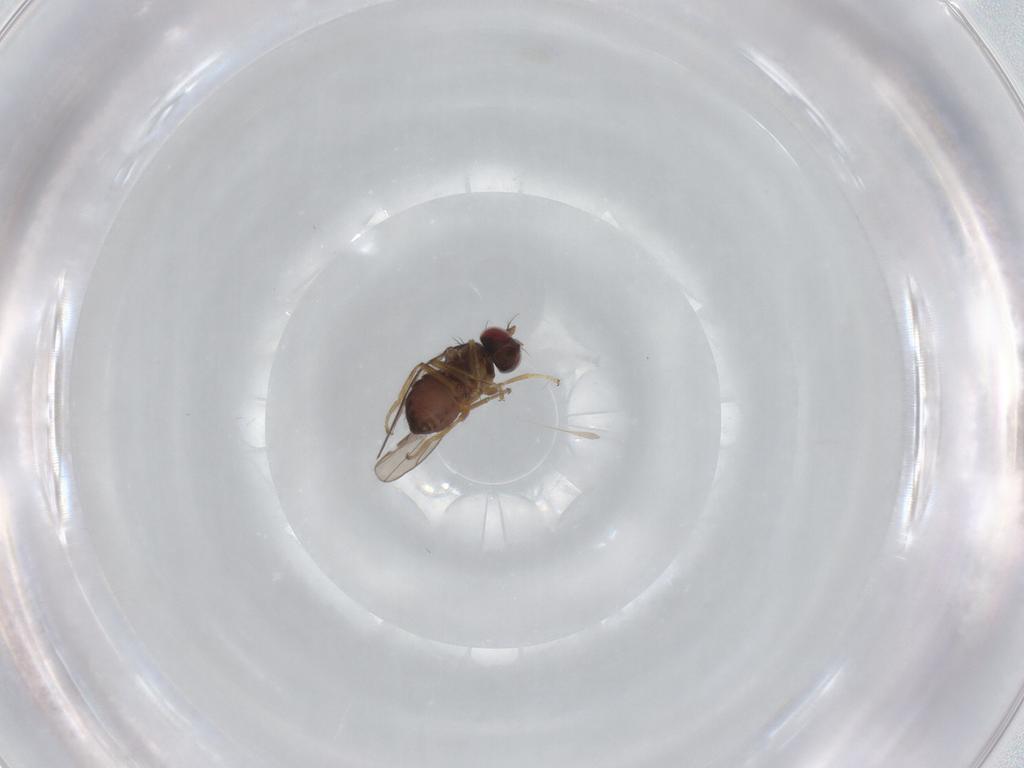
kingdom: Animalia
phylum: Arthropoda
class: Insecta
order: Diptera
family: Ephydridae
